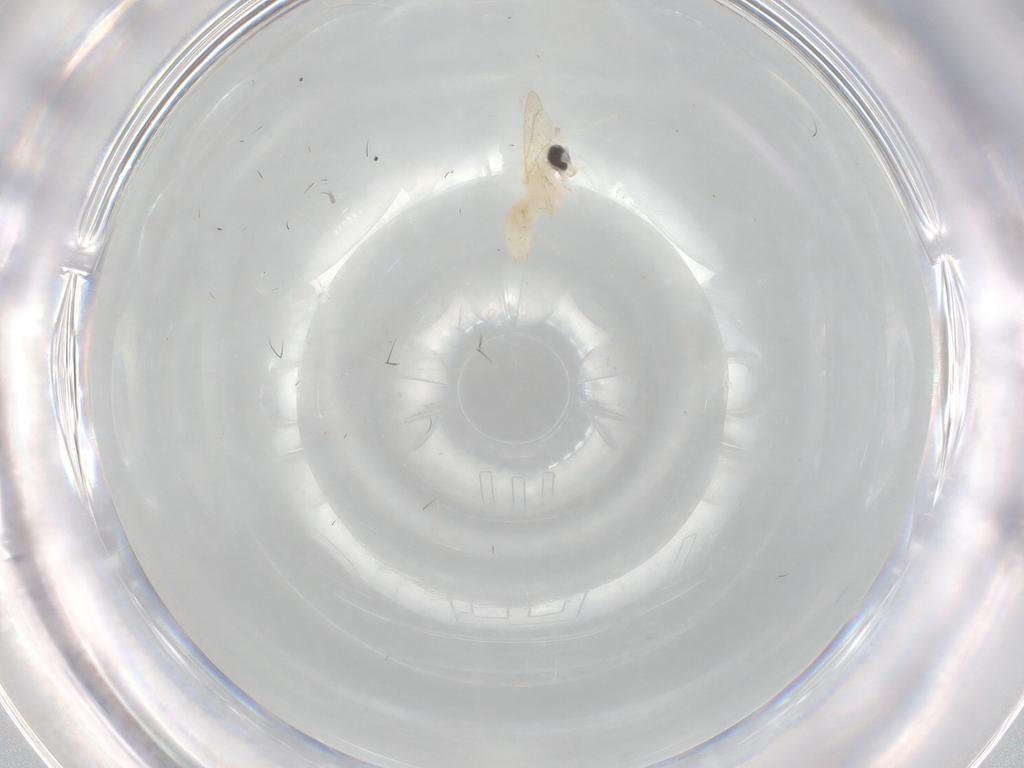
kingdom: Animalia
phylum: Arthropoda
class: Insecta
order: Diptera
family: Cecidomyiidae
